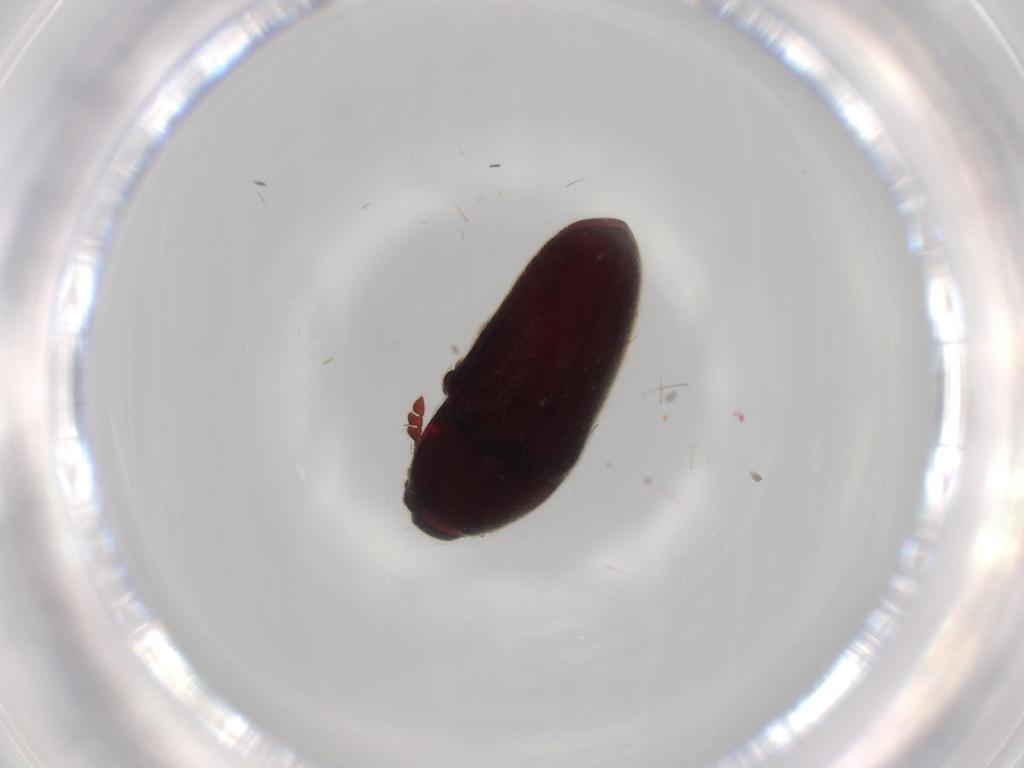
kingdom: Animalia
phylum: Arthropoda
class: Insecta
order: Coleoptera
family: Throscidae
